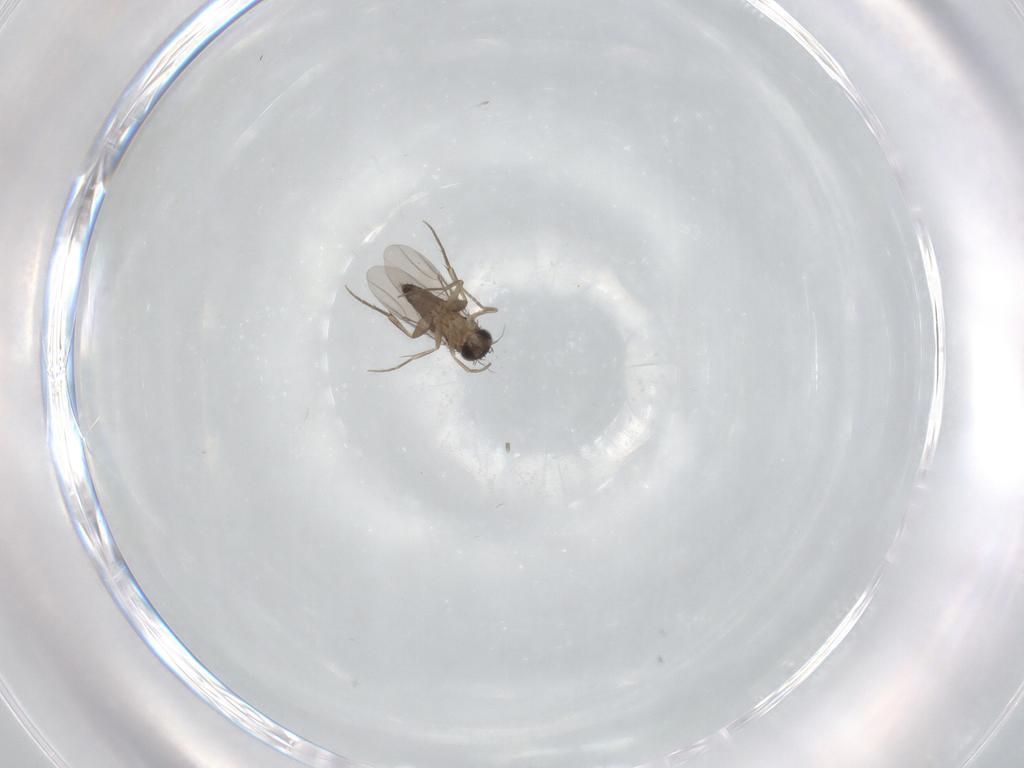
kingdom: Animalia
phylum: Arthropoda
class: Insecta
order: Diptera
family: Phoridae
